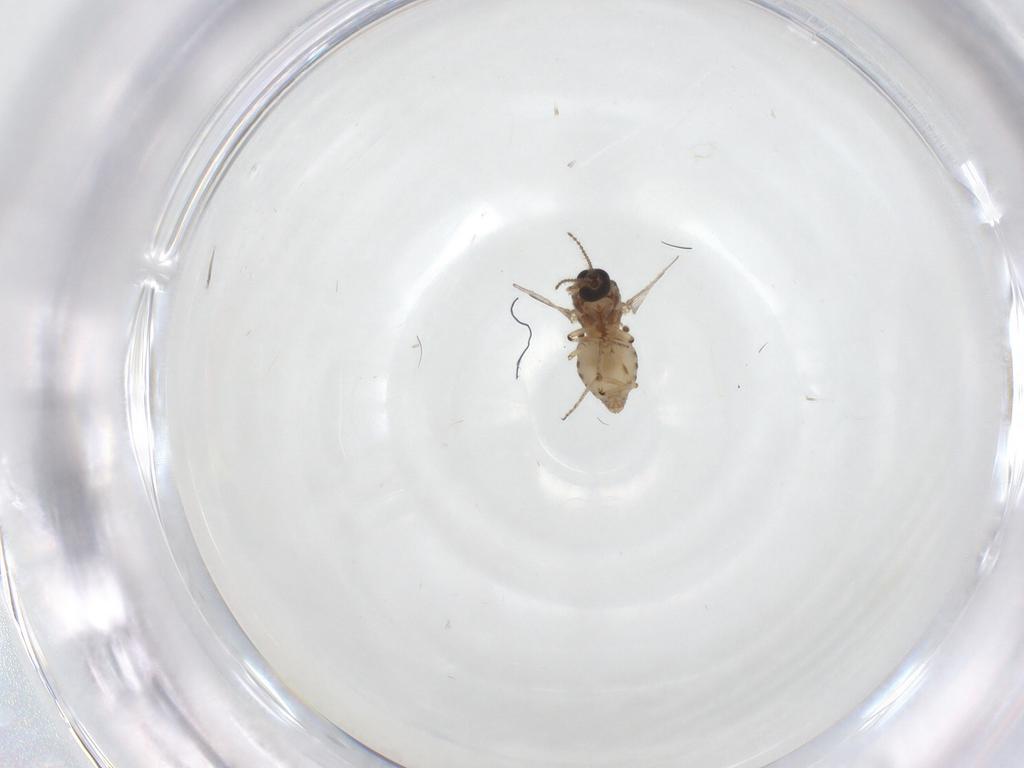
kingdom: Animalia
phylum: Arthropoda
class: Insecta
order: Diptera
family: Ceratopogonidae
